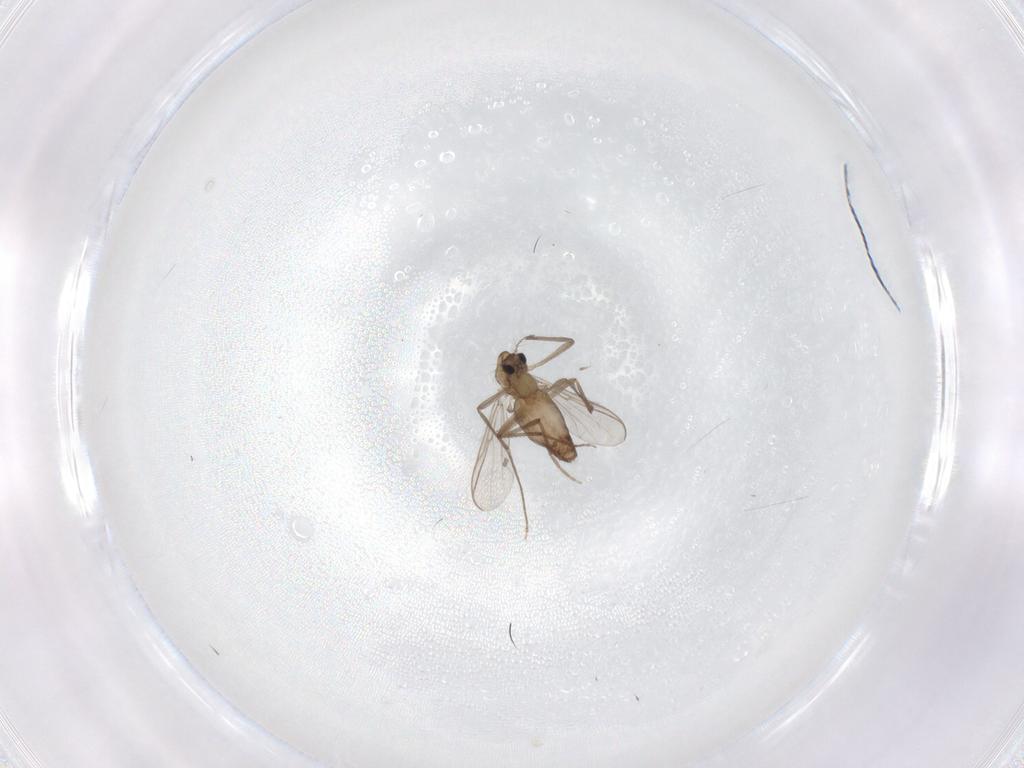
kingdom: Animalia
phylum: Arthropoda
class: Insecta
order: Diptera
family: Chironomidae
